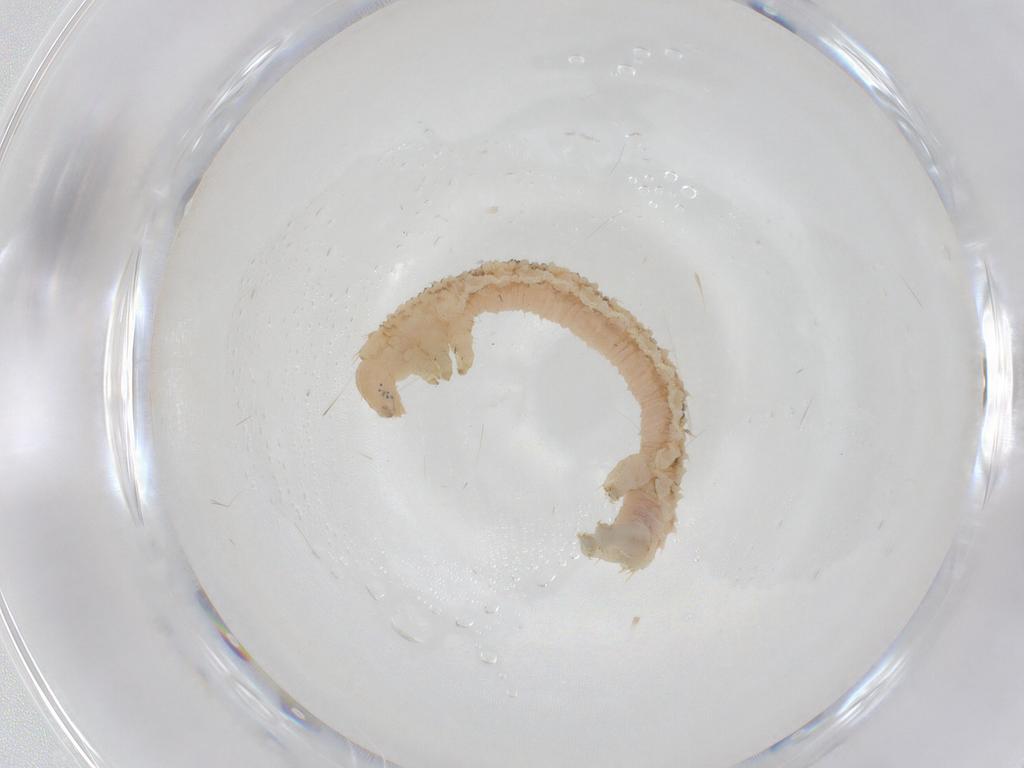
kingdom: Animalia
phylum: Arthropoda
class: Insecta
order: Lepidoptera
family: Geometridae
